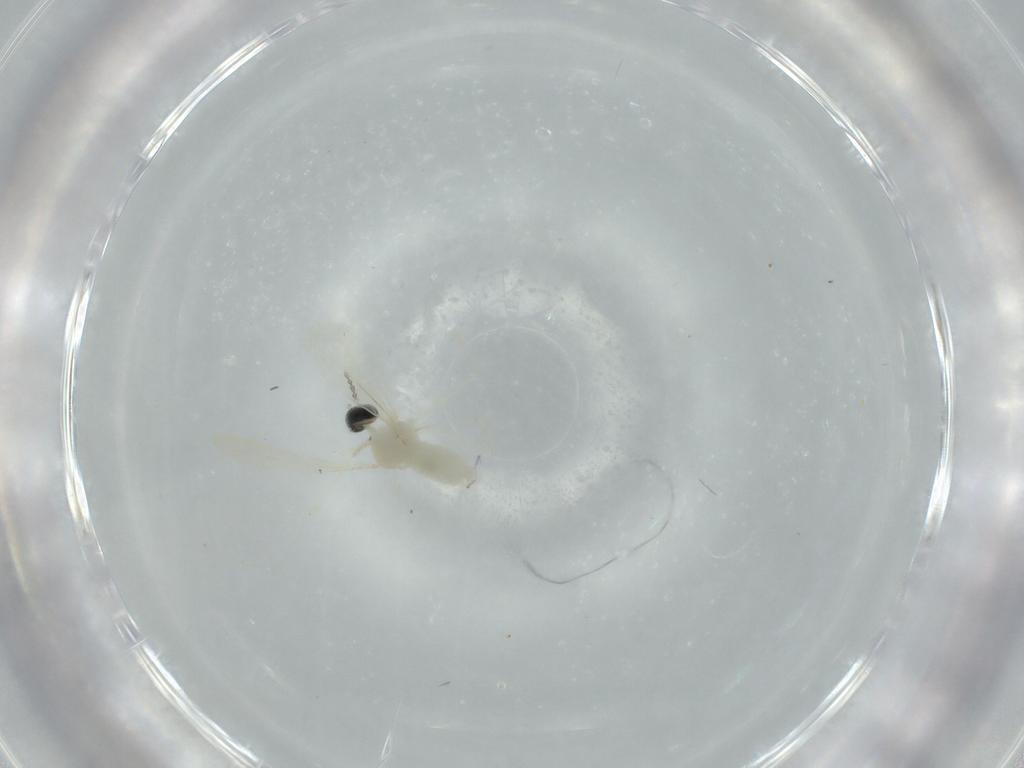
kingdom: Animalia
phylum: Arthropoda
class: Insecta
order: Diptera
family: Cecidomyiidae
